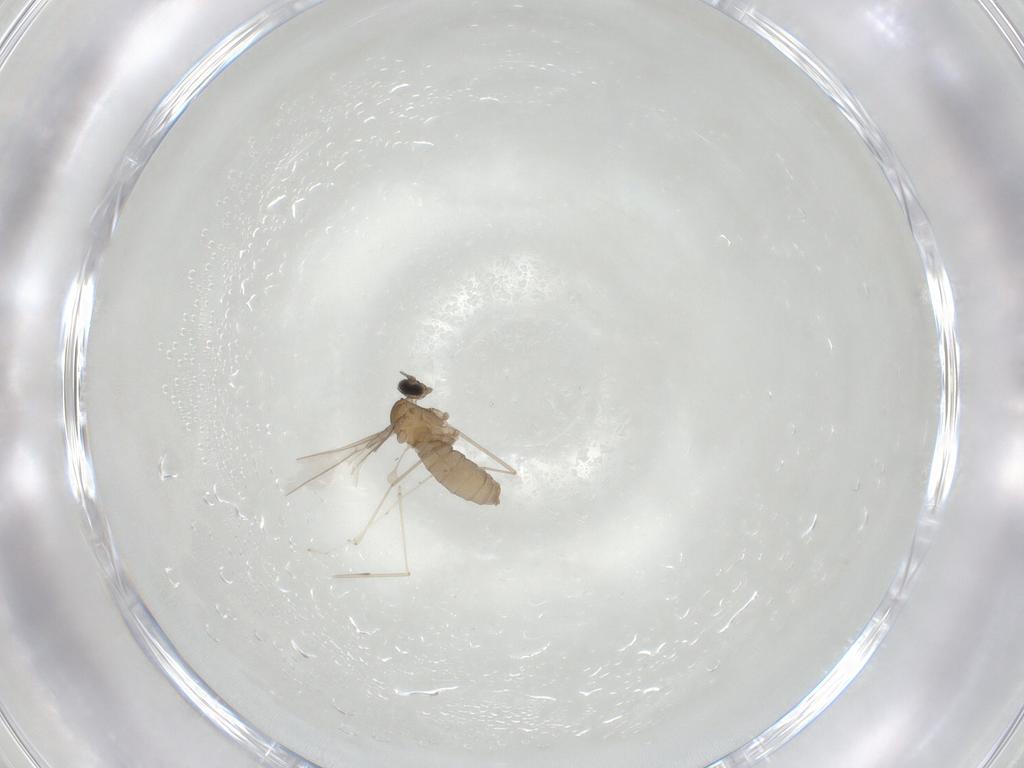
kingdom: Animalia
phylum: Arthropoda
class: Insecta
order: Diptera
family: Cecidomyiidae
